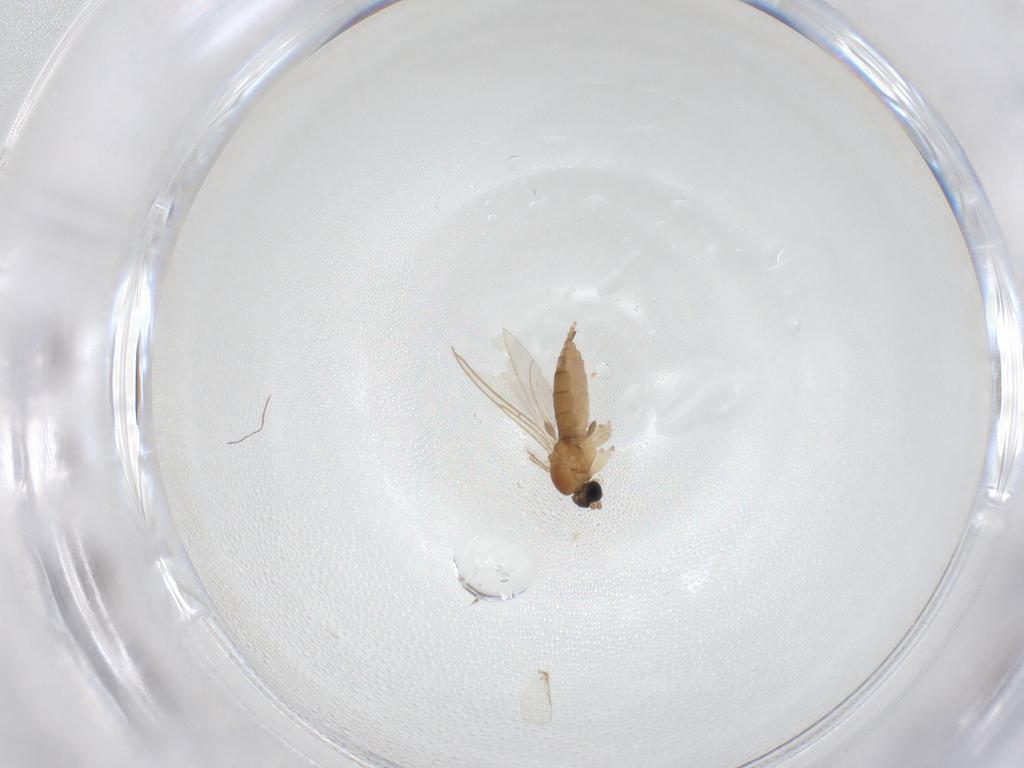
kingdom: Animalia
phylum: Arthropoda
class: Insecta
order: Diptera
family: Sciaridae
